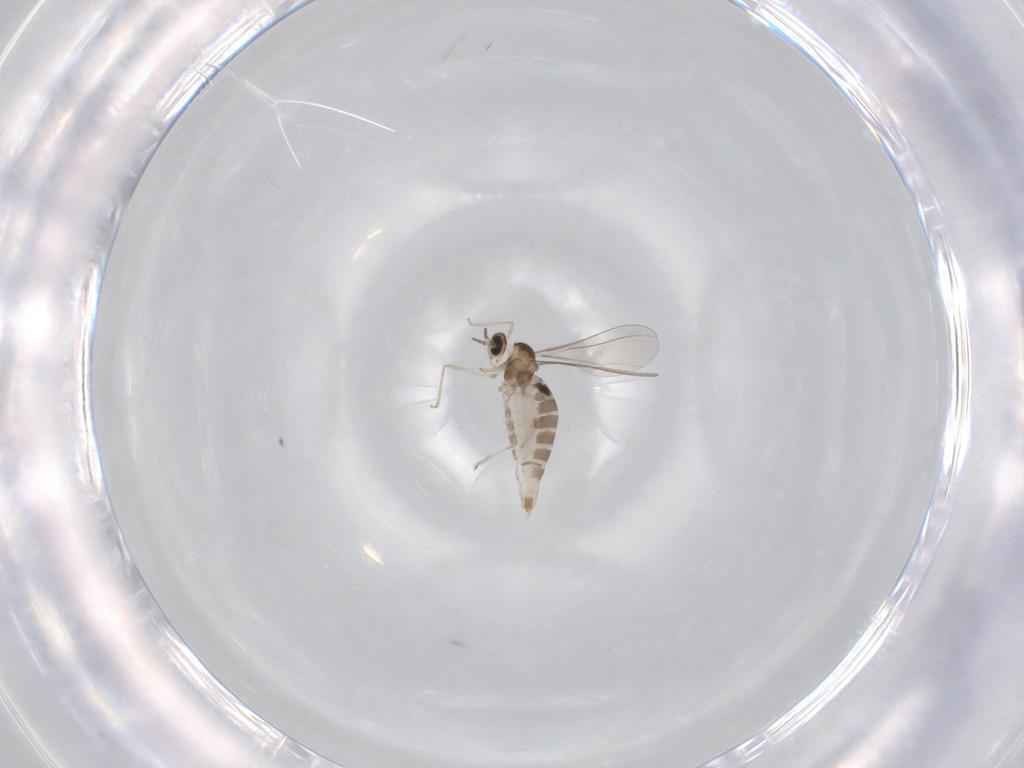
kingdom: Animalia
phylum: Arthropoda
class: Insecta
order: Diptera
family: Chironomidae
